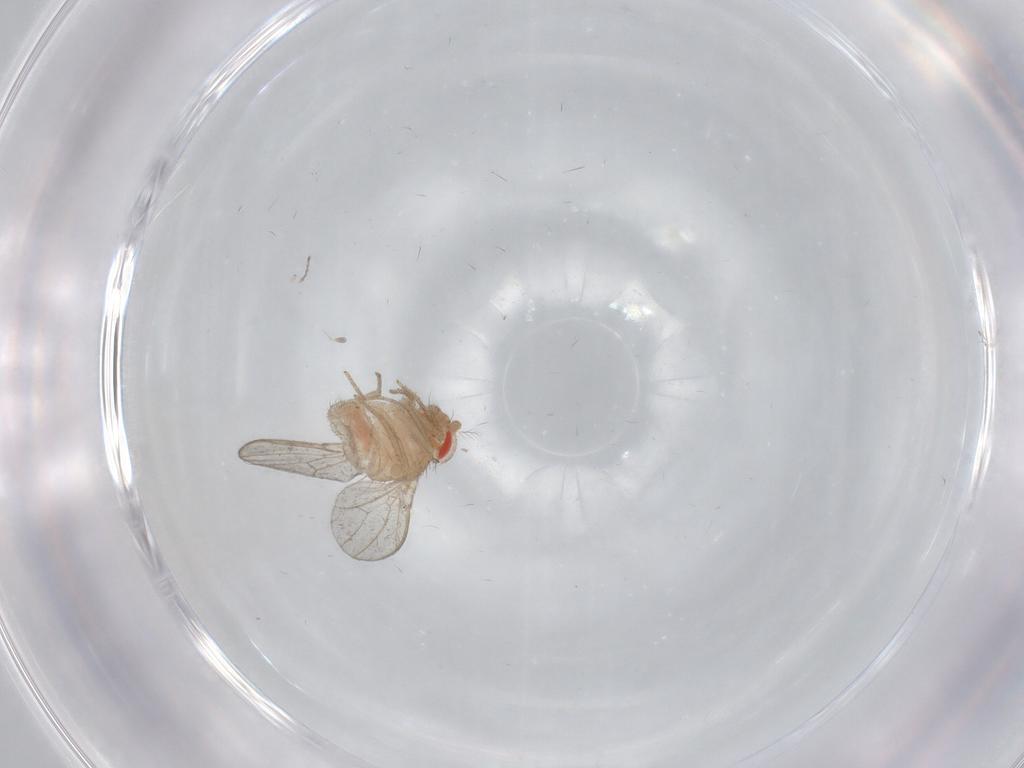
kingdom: Animalia
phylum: Arthropoda
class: Insecta
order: Diptera
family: Drosophilidae
